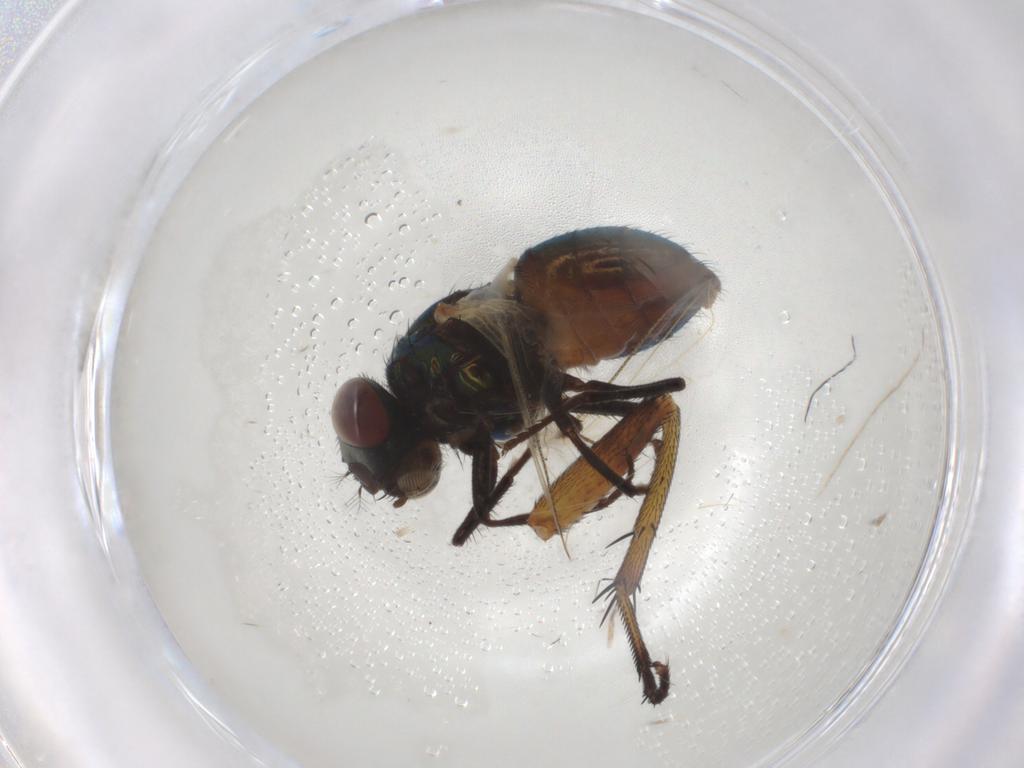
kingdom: Animalia
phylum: Arthropoda
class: Insecta
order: Diptera
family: Muscidae
